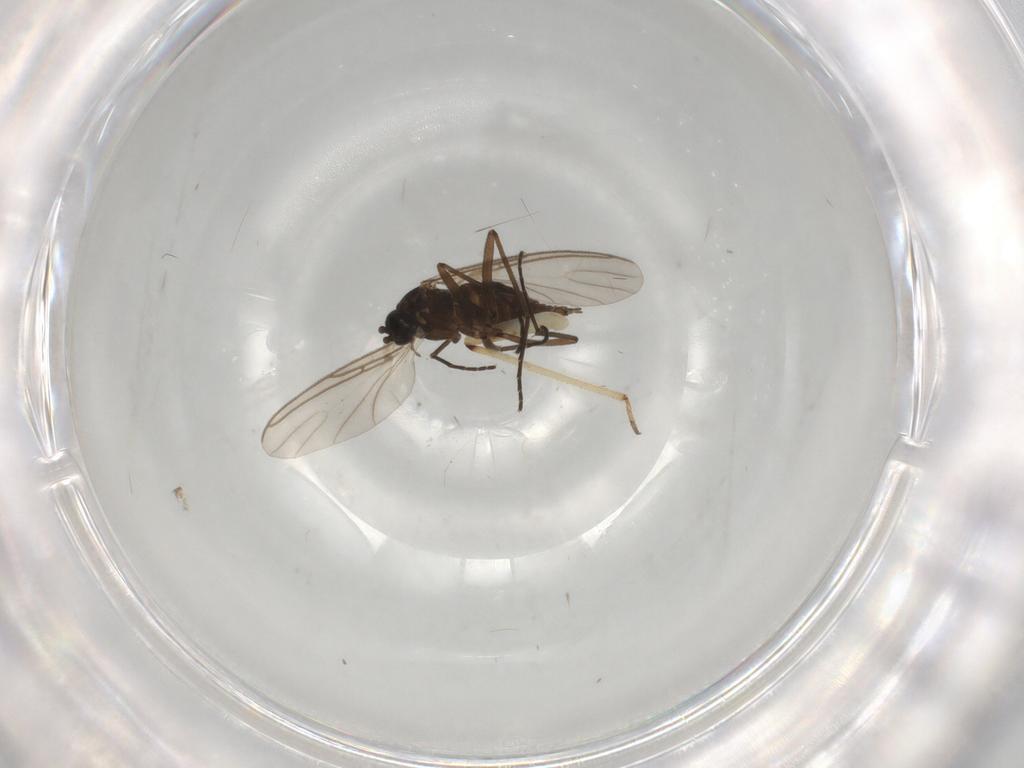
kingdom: Animalia
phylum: Arthropoda
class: Insecta
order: Diptera
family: Sciaridae
